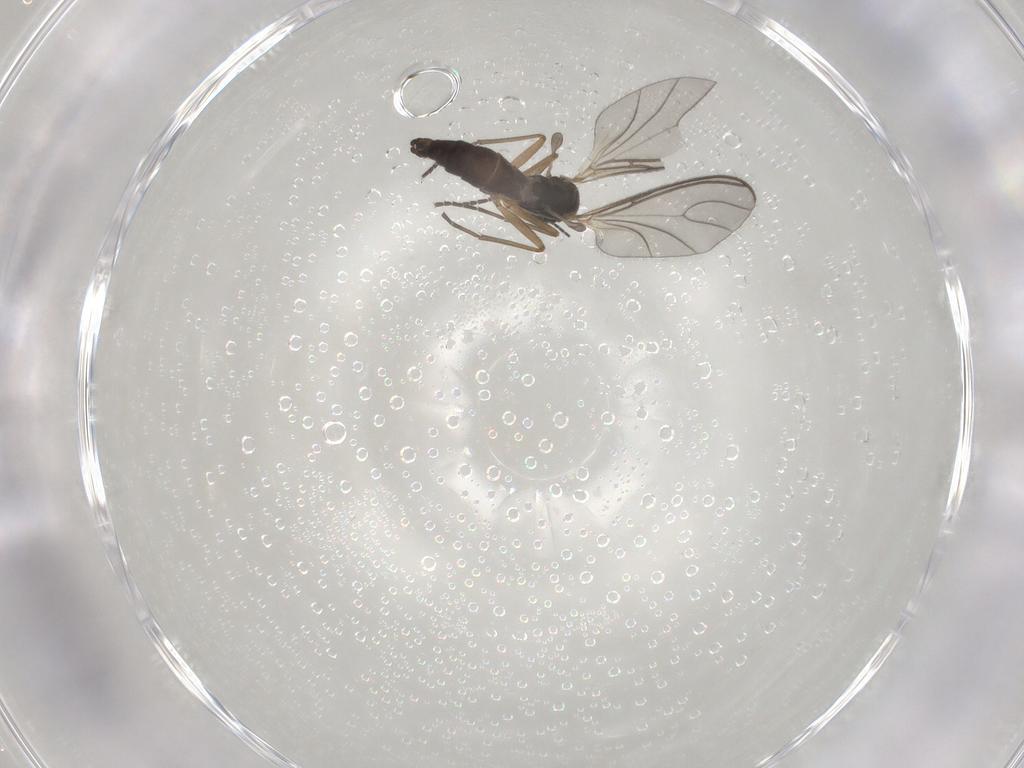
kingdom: Animalia
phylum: Arthropoda
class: Insecta
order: Diptera
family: Sciaridae
